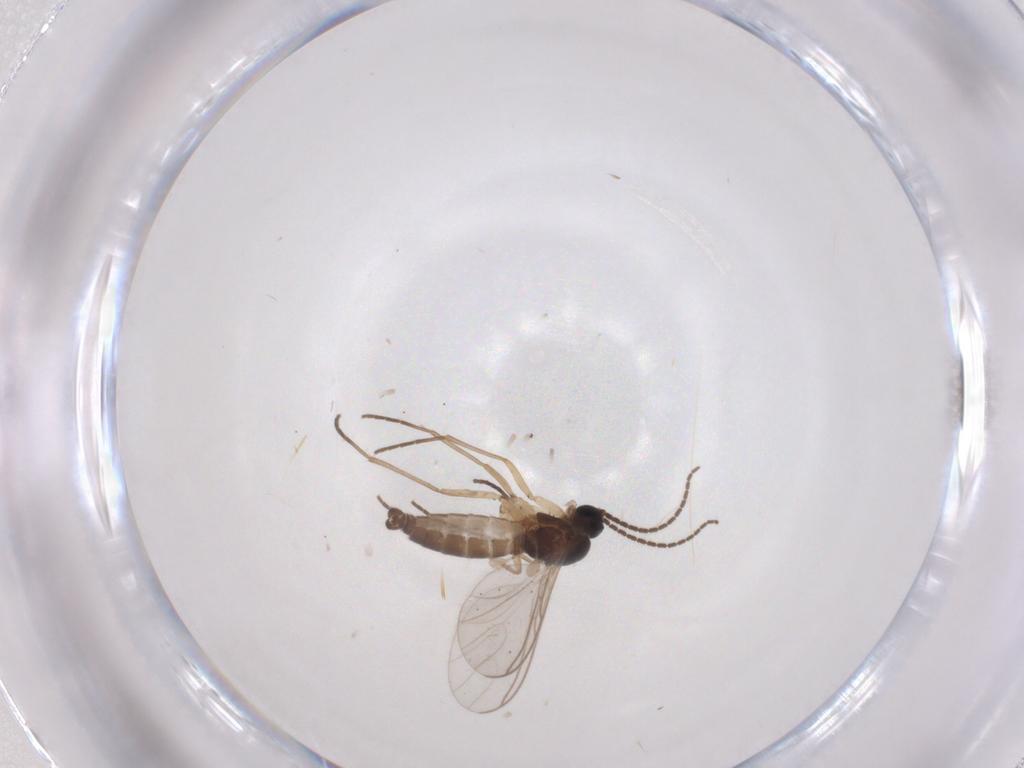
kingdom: Animalia
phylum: Arthropoda
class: Insecta
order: Diptera
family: Sciaridae
